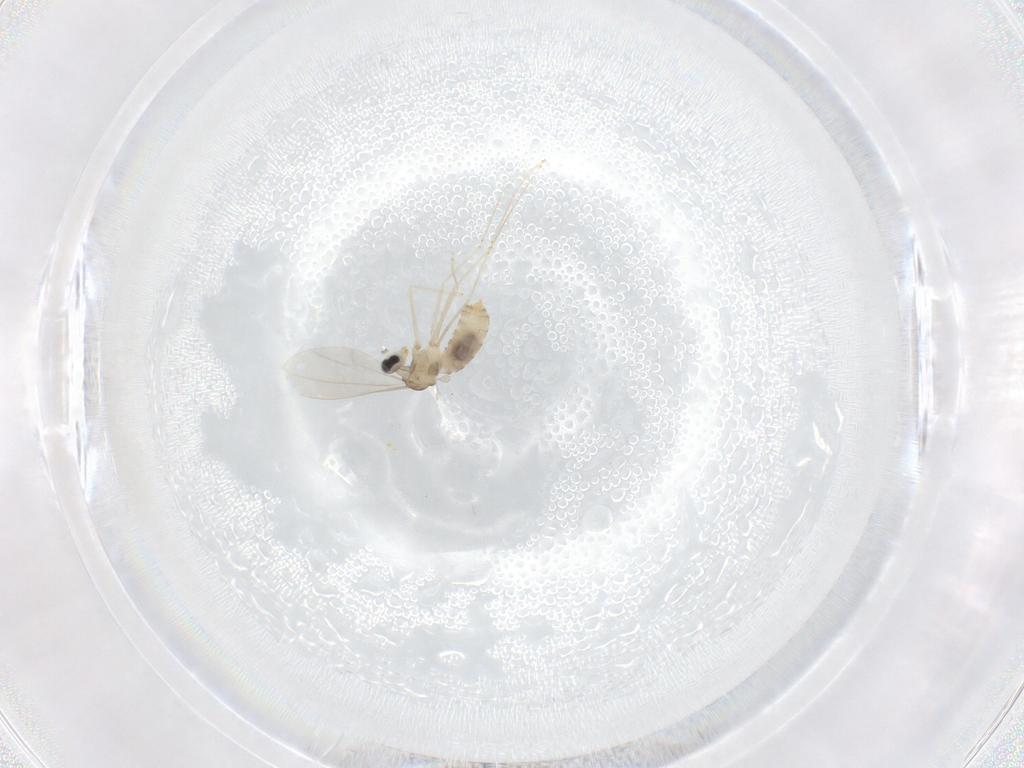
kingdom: Animalia
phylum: Arthropoda
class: Insecta
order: Diptera
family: Cecidomyiidae
